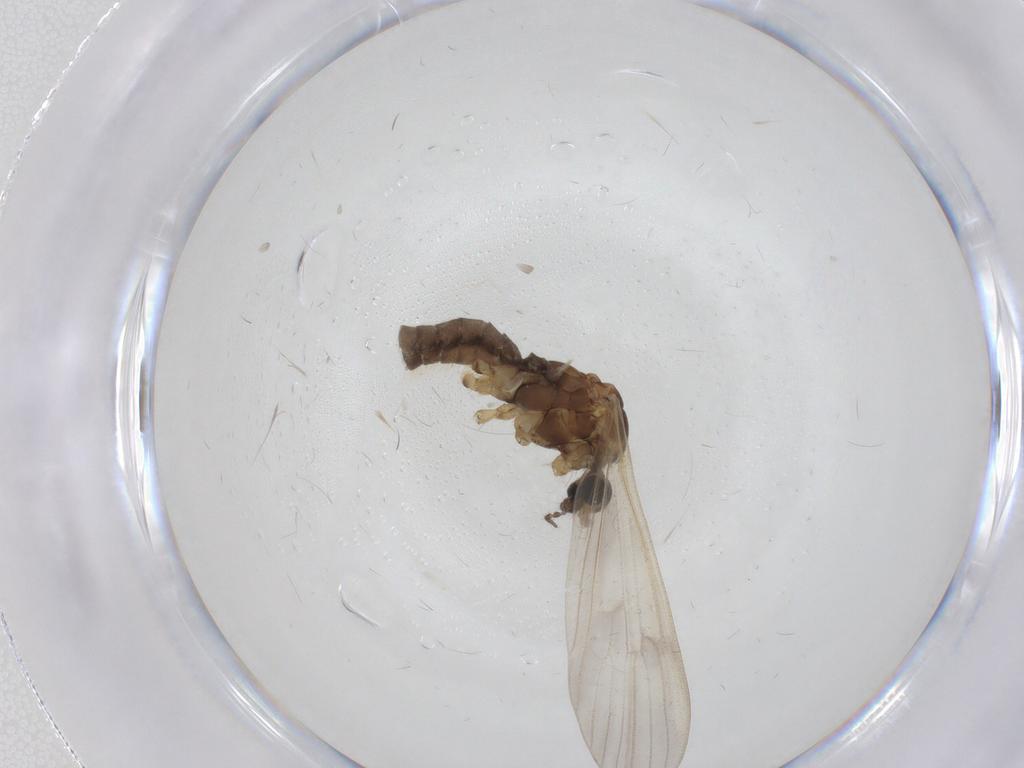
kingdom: Animalia
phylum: Arthropoda
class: Insecta
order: Diptera
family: Limoniidae
